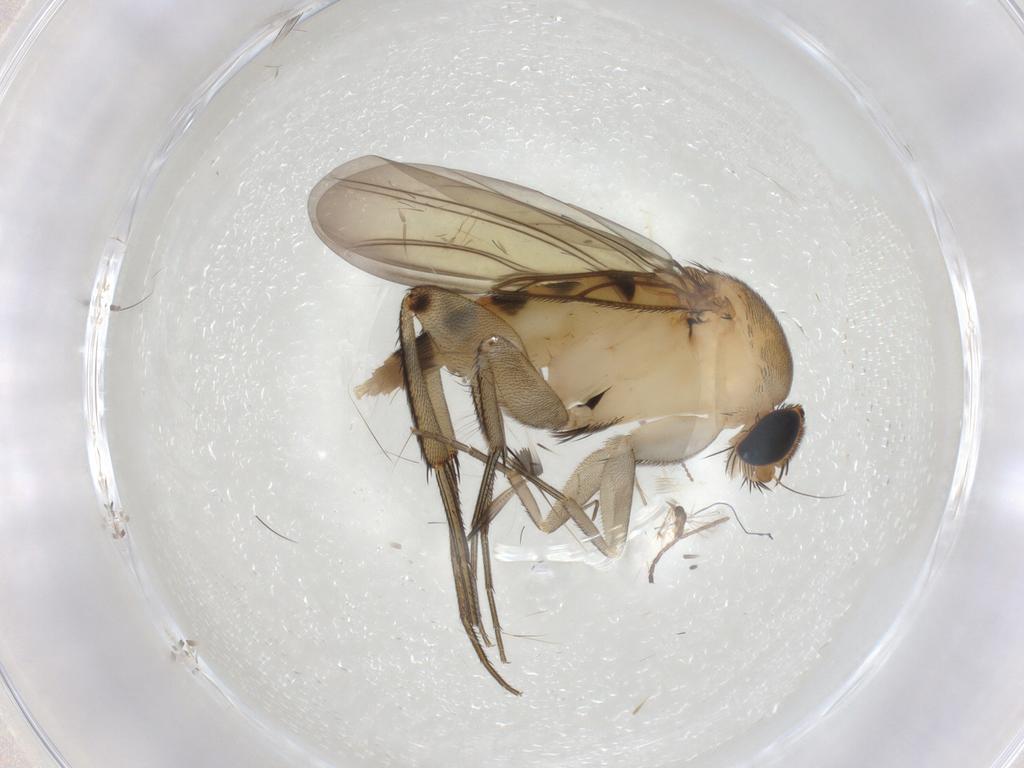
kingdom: Animalia
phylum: Arthropoda
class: Insecta
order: Diptera
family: Phoridae
